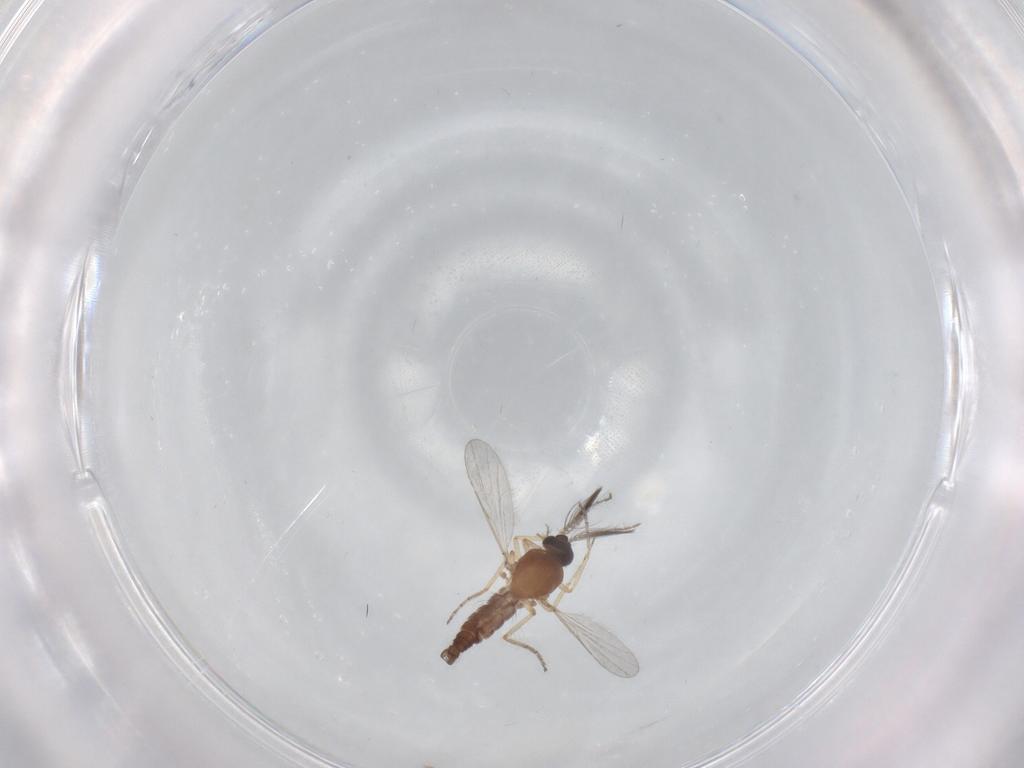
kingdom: Animalia
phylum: Arthropoda
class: Insecta
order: Diptera
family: Ceratopogonidae
